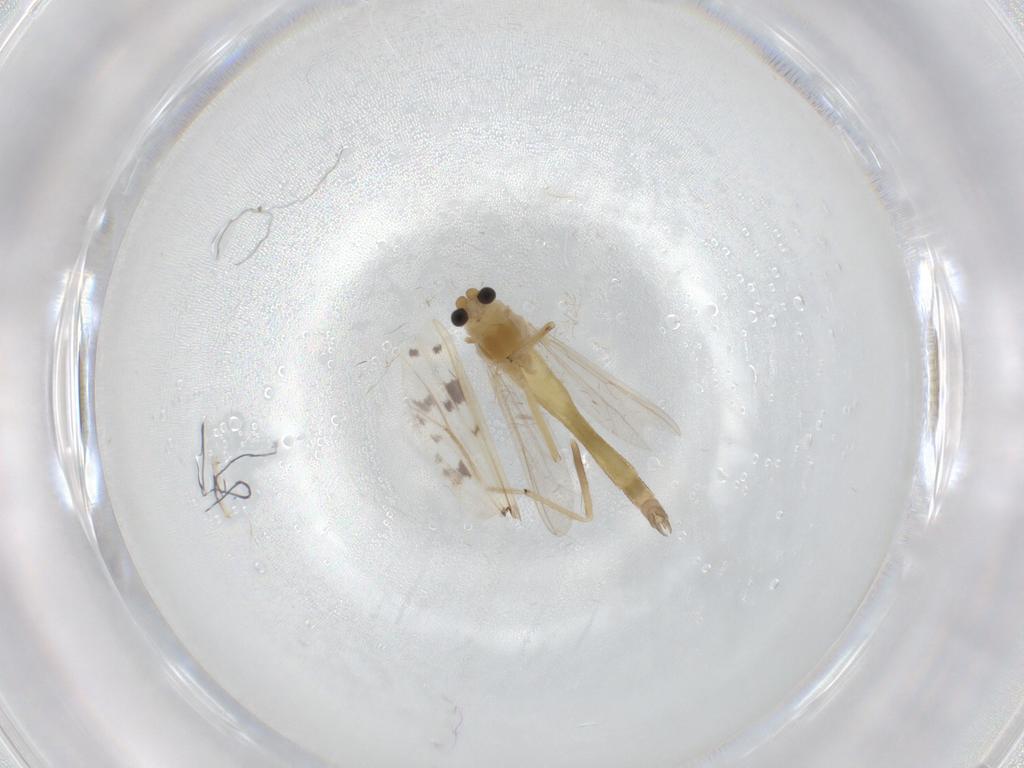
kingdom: Animalia
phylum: Arthropoda
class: Insecta
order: Diptera
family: Chironomidae
